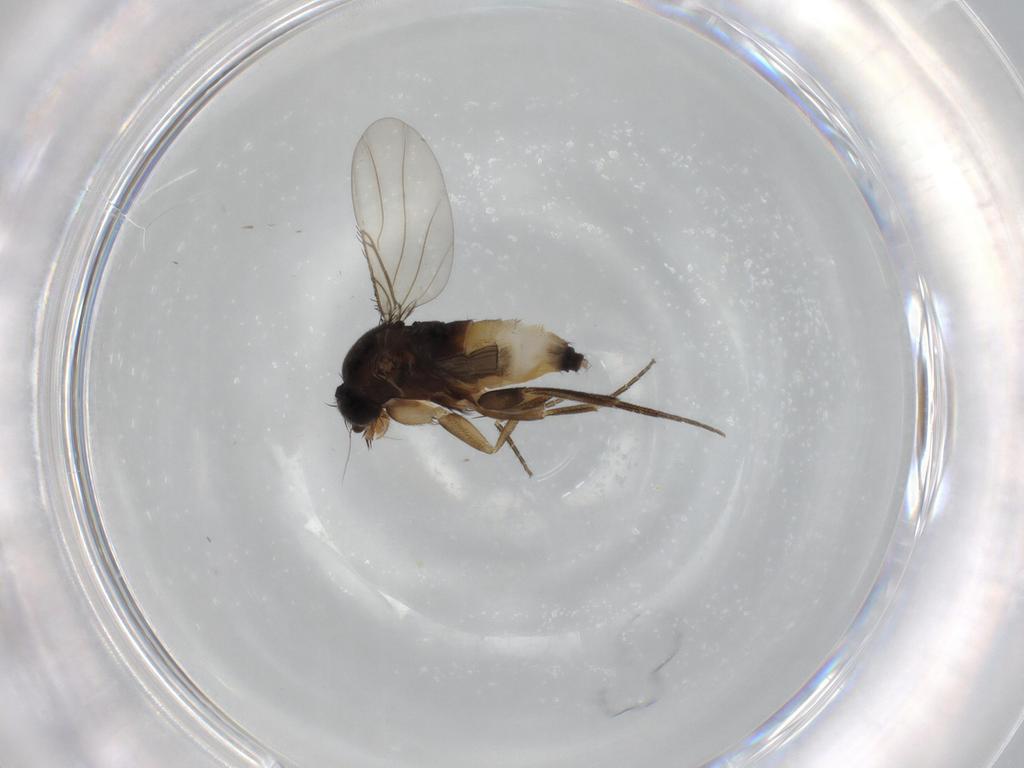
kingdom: Animalia
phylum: Arthropoda
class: Insecta
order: Diptera
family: Phoridae
